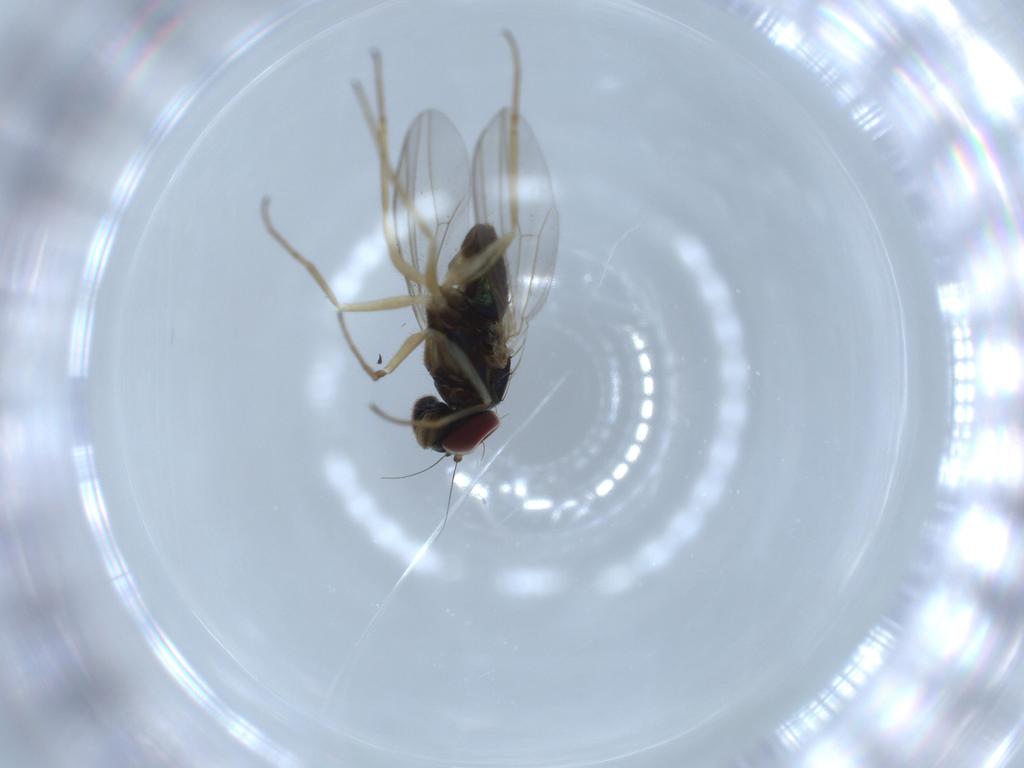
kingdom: Animalia
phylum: Arthropoda
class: Insecta
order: Diptera
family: Dolichopodidae
